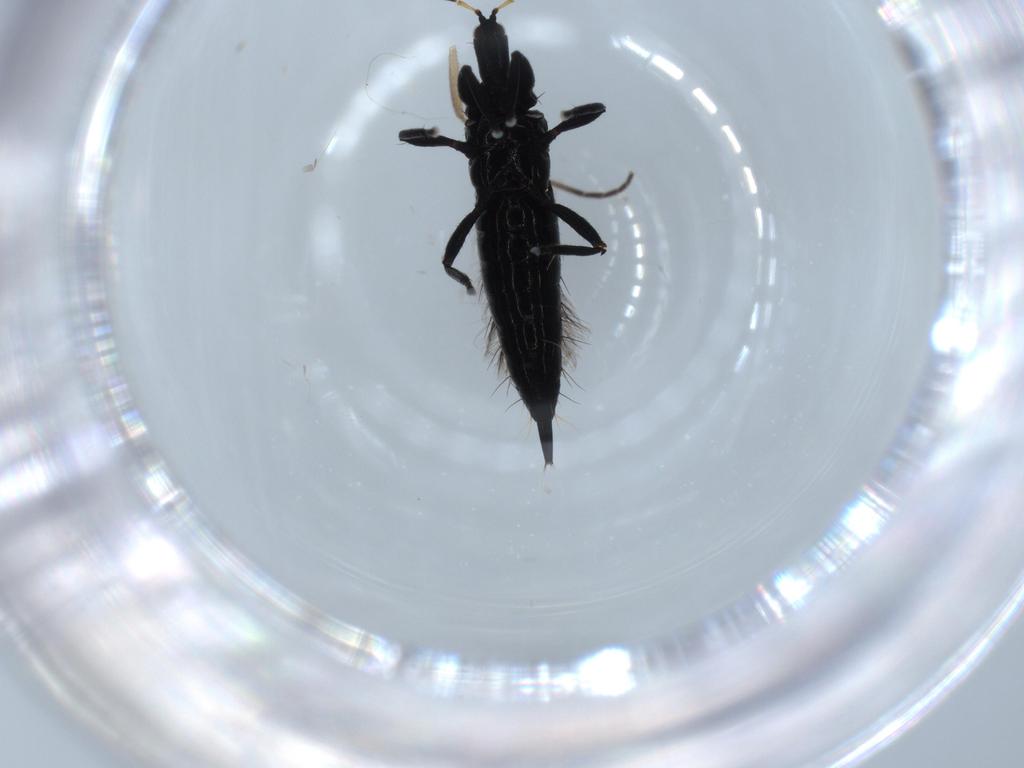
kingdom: Animalia
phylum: Arthropoda
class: Insecta
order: Thysanoptera
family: Phlaeothripidae
